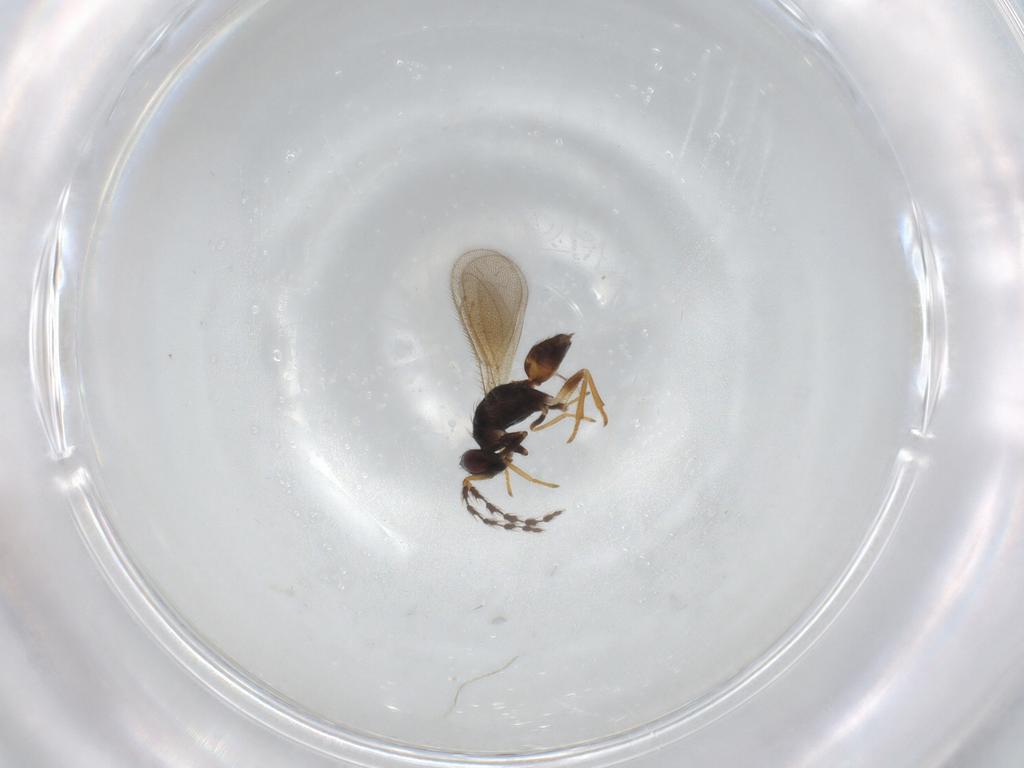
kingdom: Animalia
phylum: Arthropoda
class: Insecta
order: Hymenoptera
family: Eulophidae
